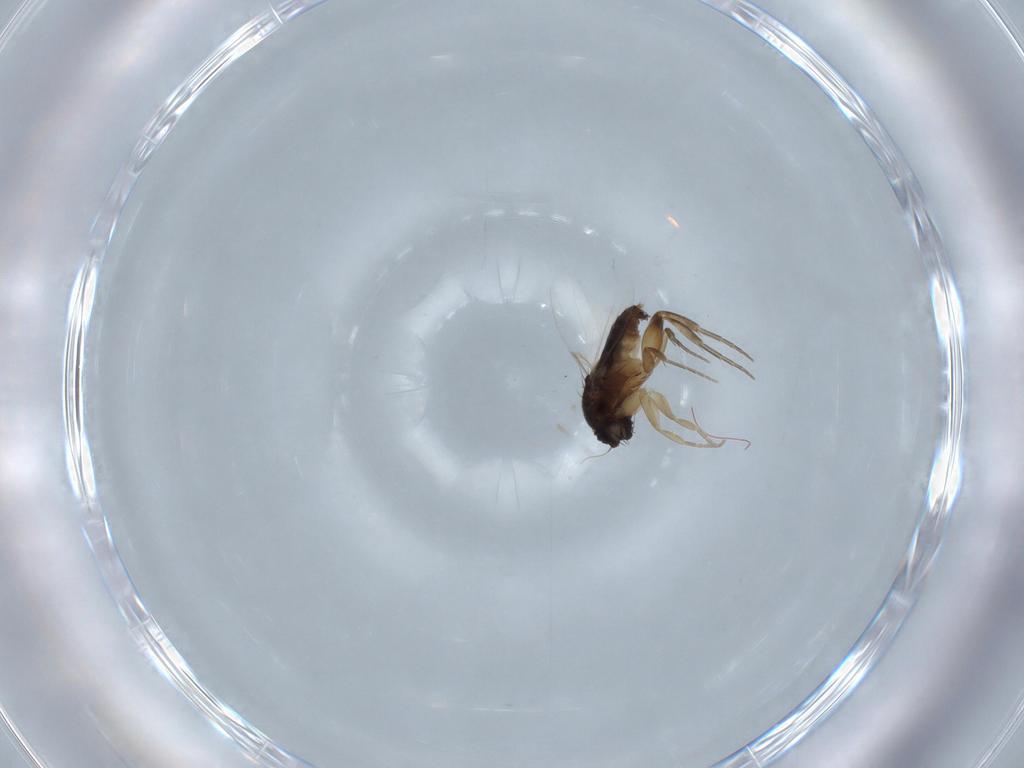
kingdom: Animalia
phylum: Arthropoda
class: Insecta
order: Diptera
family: Phoridae
